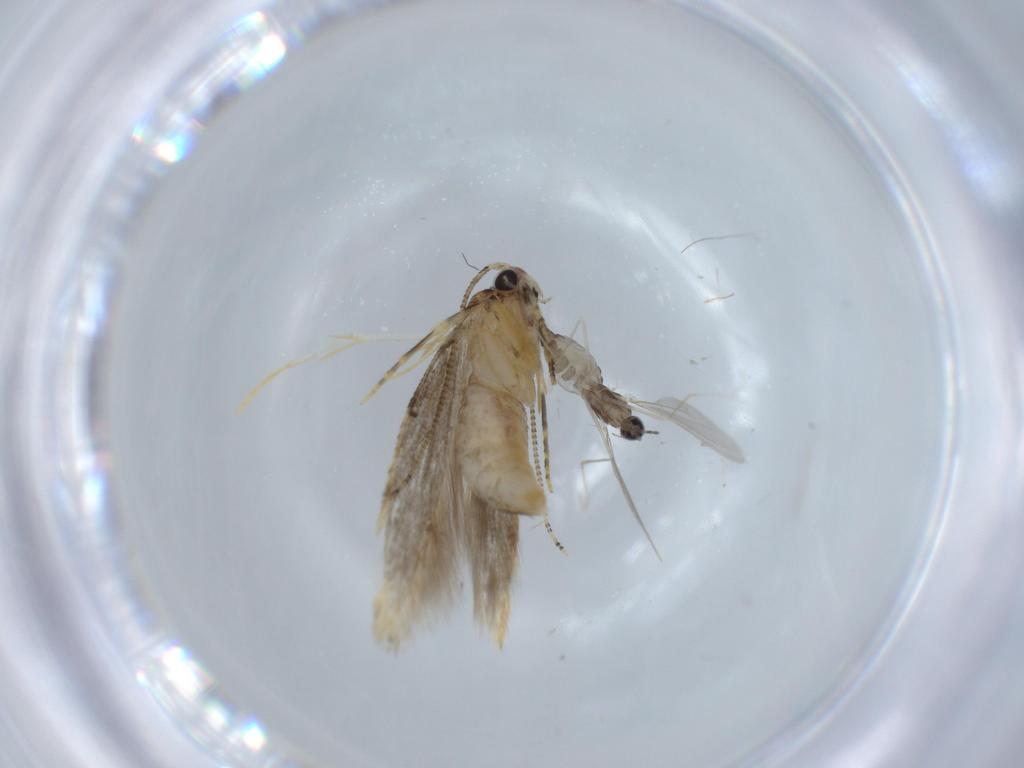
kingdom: Animalia
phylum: Arthropoda
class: Insecta
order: Lepidoptera
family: Tineidae
